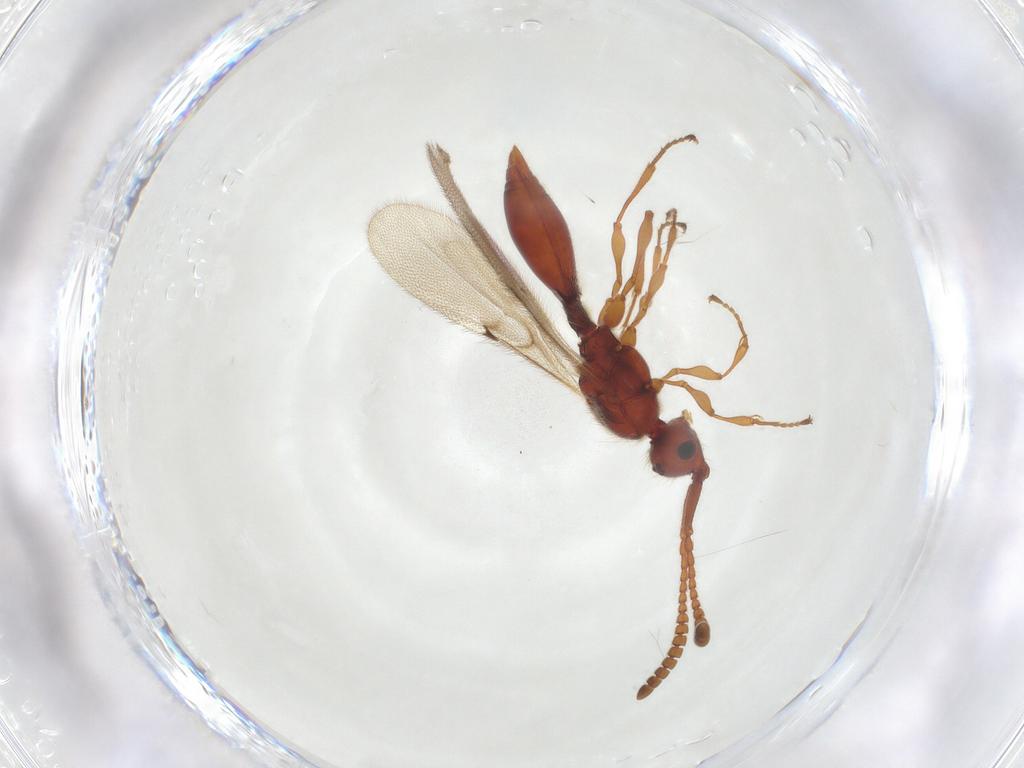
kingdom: Animalia
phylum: Arthropoda
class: Insecta
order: Hymenoptera
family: Diapriidae
